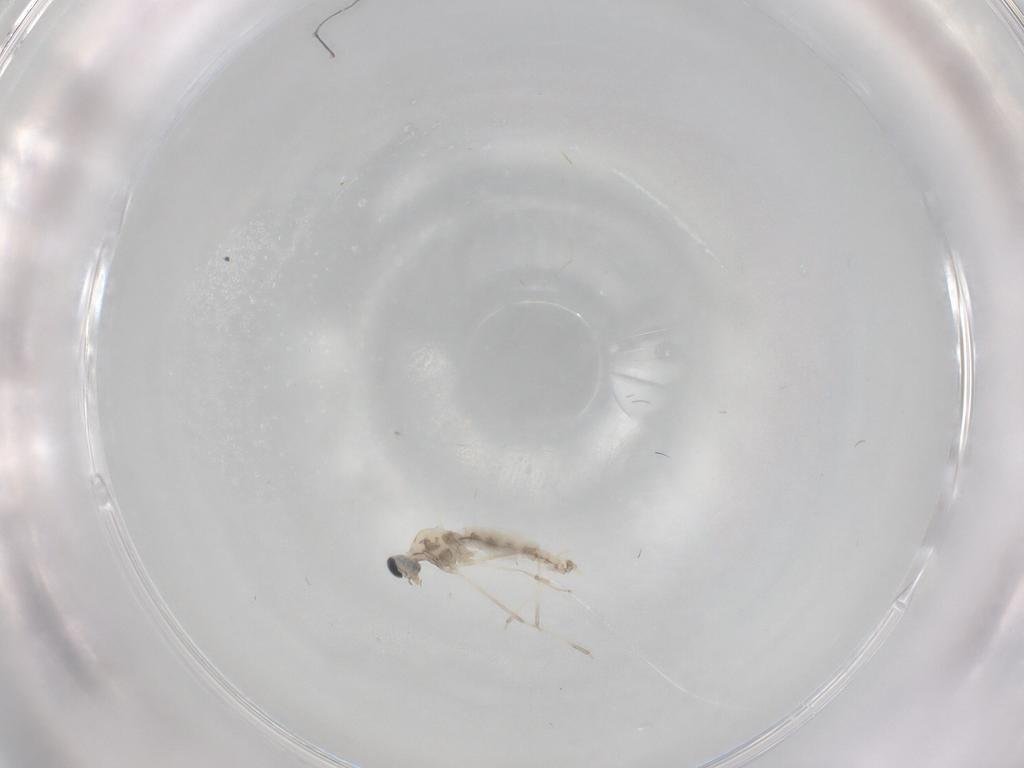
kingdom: Animalia
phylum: Arthropoda
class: Insecta
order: Diptera
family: Cecidomyiidae
